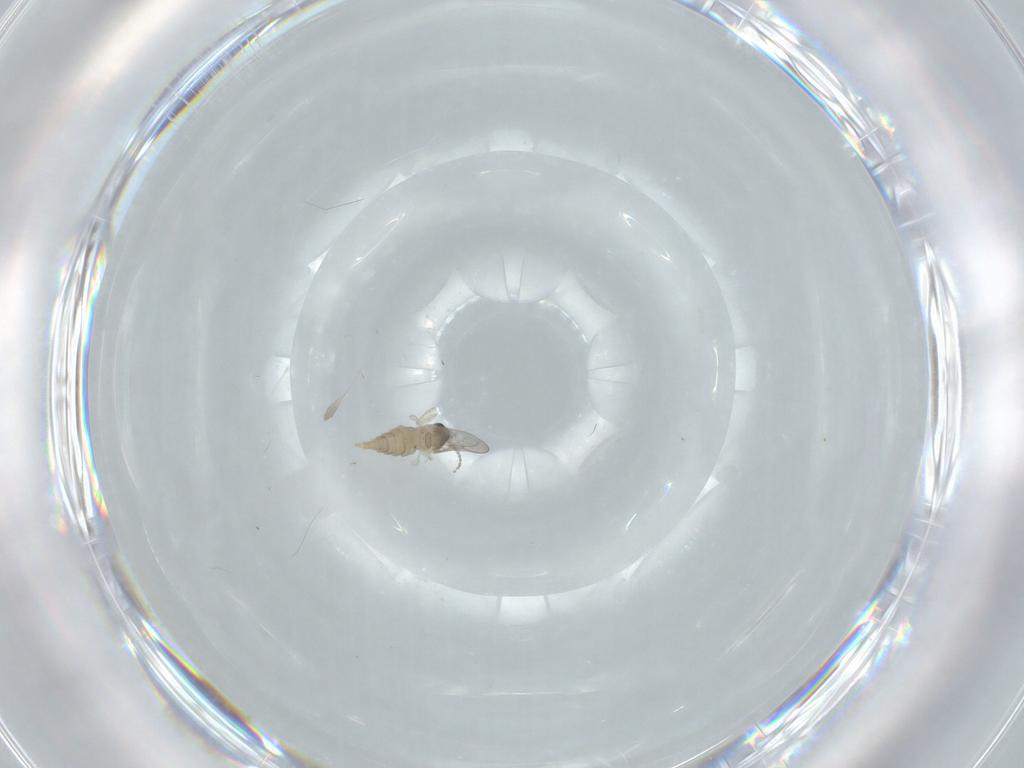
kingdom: Animalia
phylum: Arthropoda
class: Insecta
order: Diptera
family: Cecidomyiidae
